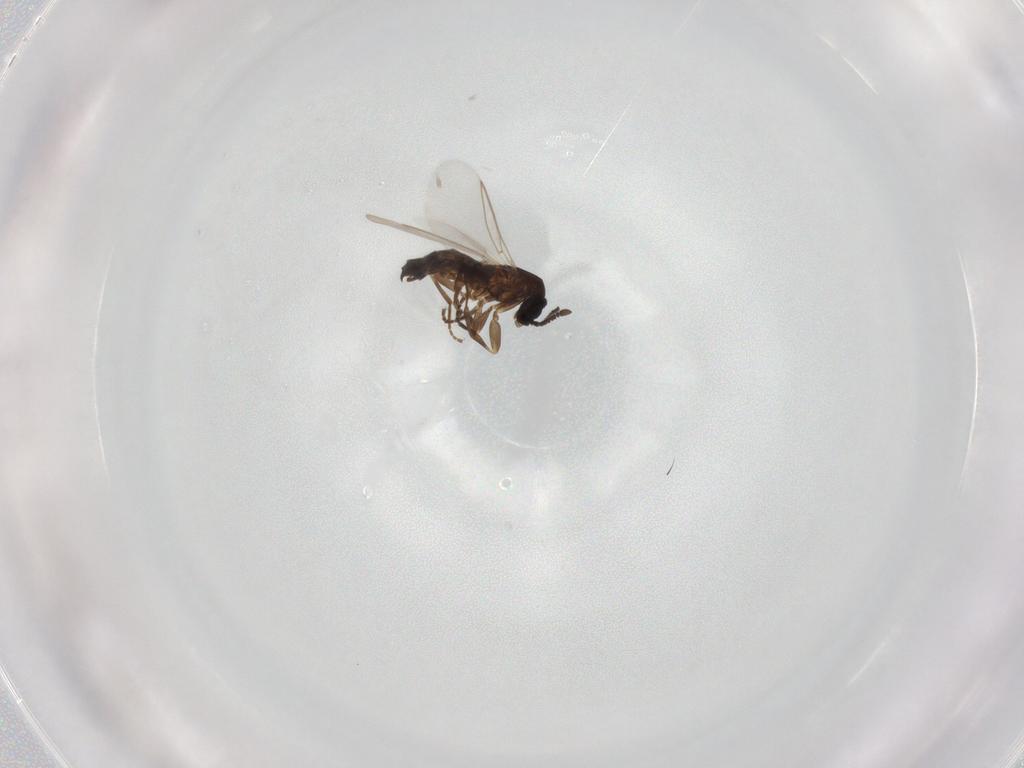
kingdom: Animalia
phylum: Arthropoda
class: Insecta
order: Diptera
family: Scatopsidae
